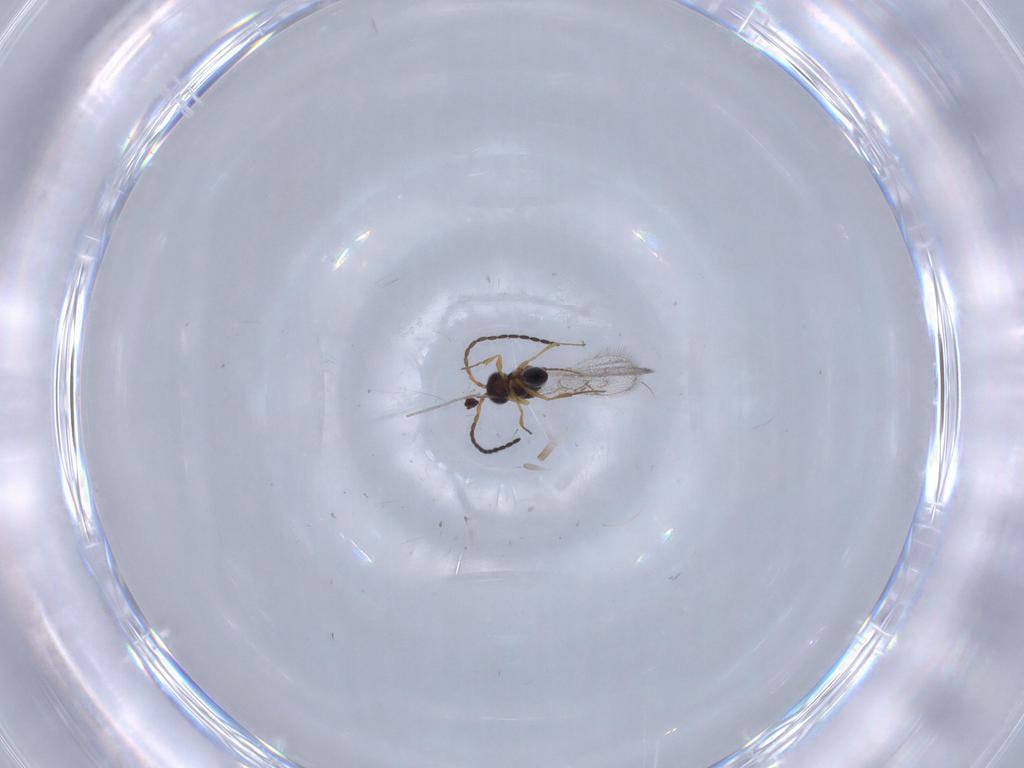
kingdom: Animalia
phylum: Arthropoda
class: Insecta
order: Hymenoptera
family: Figitidae
